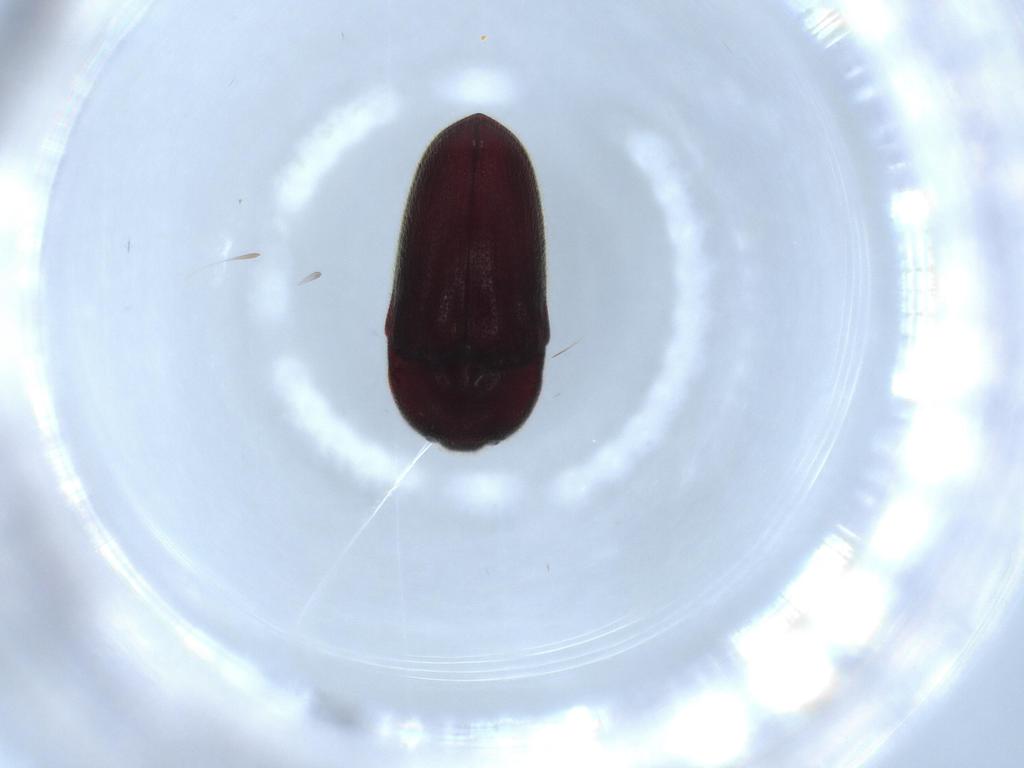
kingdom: Animalia
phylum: Arthropoda
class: Insecta
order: Coleoptera
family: Throscidae
